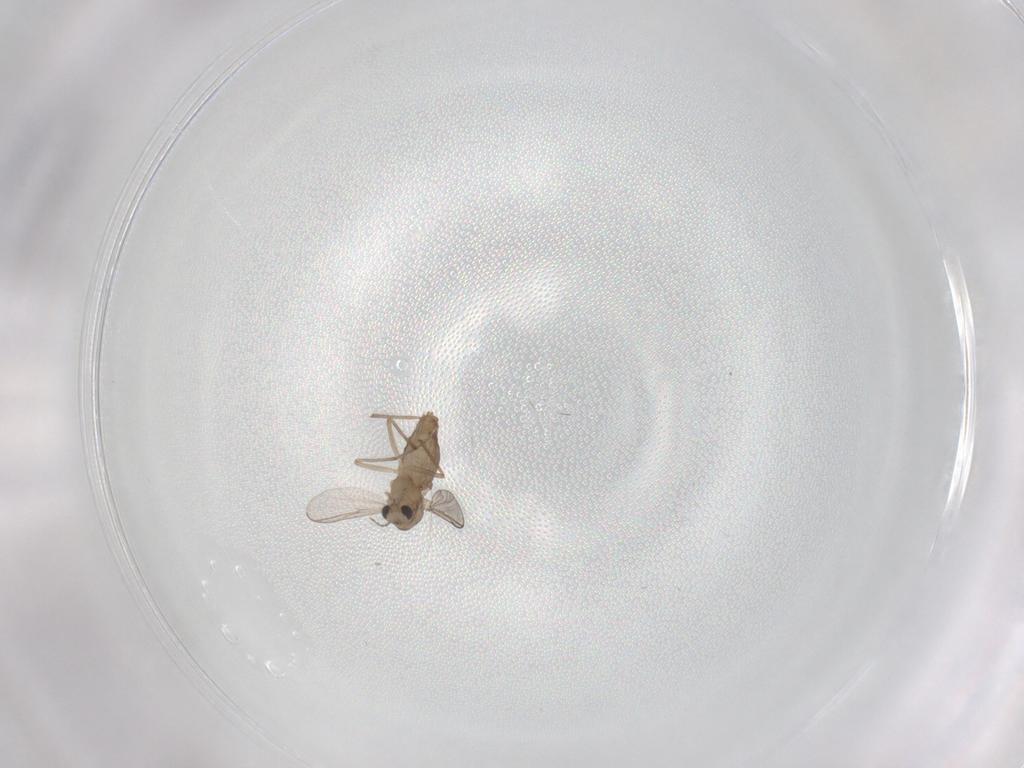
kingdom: Animalia
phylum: Arthropoda
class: Insecta
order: Diptera
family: Chironomidae
